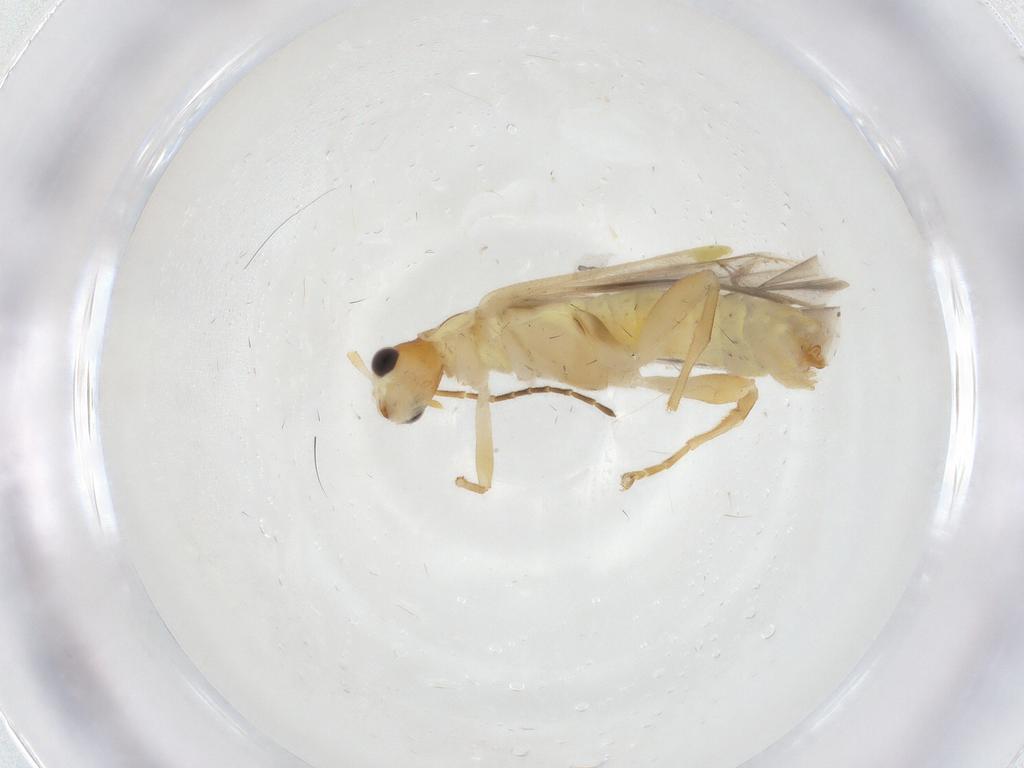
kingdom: Animalia
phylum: Arthropoda
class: Insecta
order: Coleoptera
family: Cantharidae
